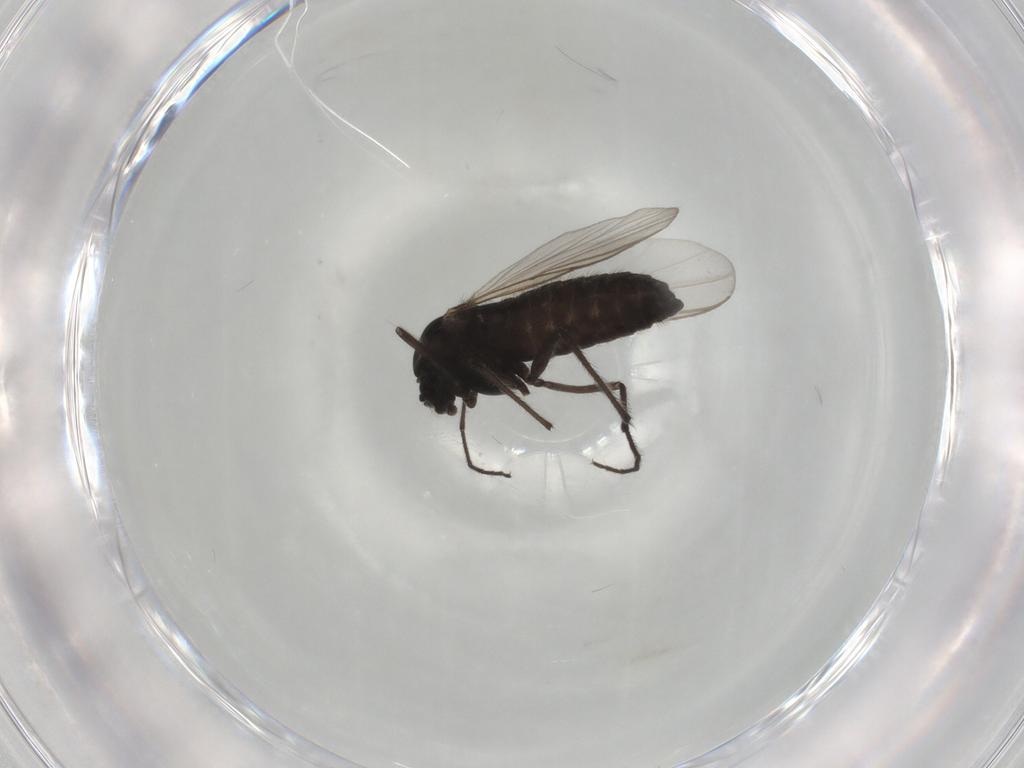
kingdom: Animalia
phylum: Arthropoda
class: Insecta
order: Diptera
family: Chironomidae
